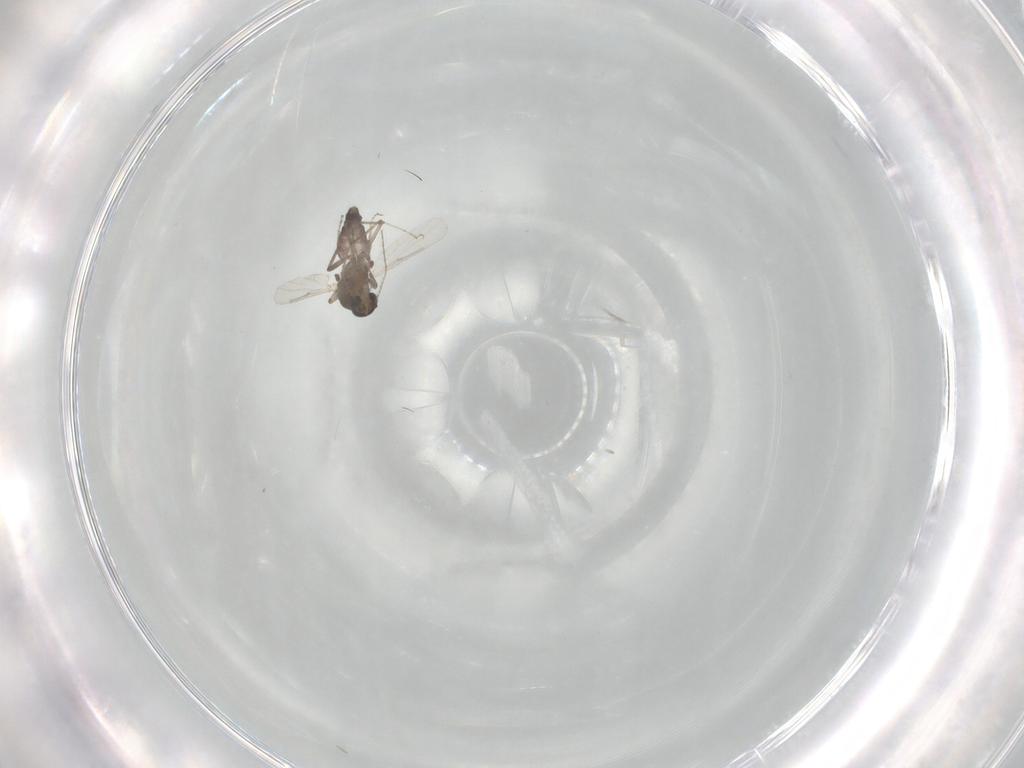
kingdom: Animalia
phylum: Arthropoda
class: Insecta
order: Diptera
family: Ceratopogonidae
